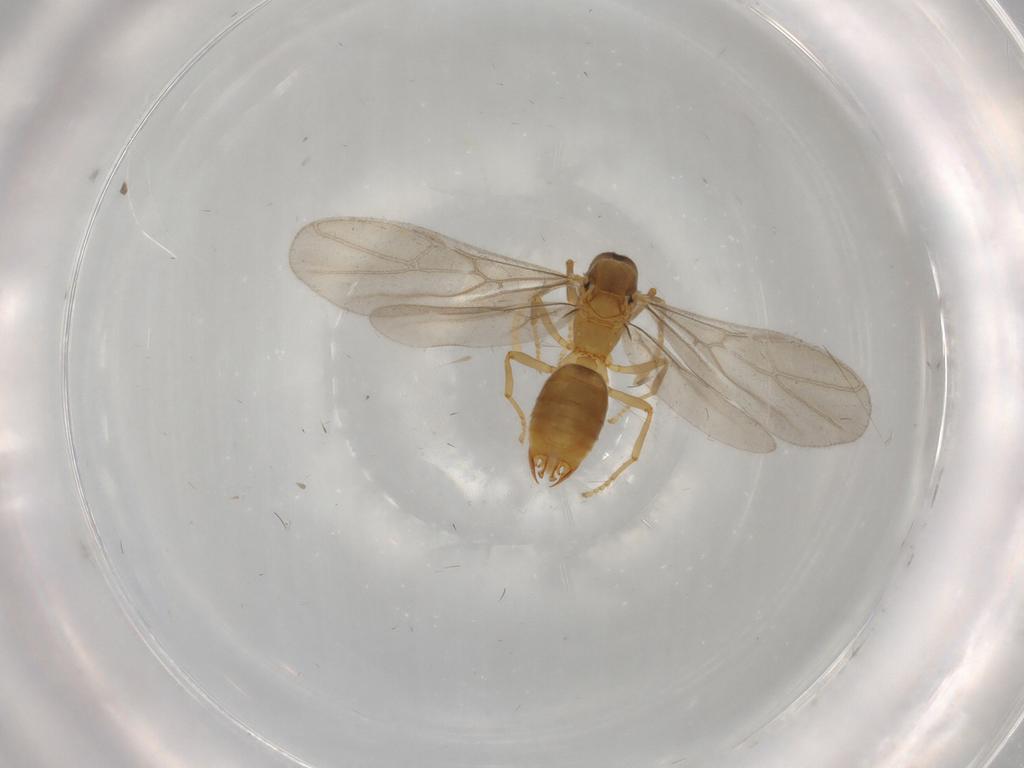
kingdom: Animalia
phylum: Arthropoda
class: Insecta
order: Hymenoptera
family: Formicidae
